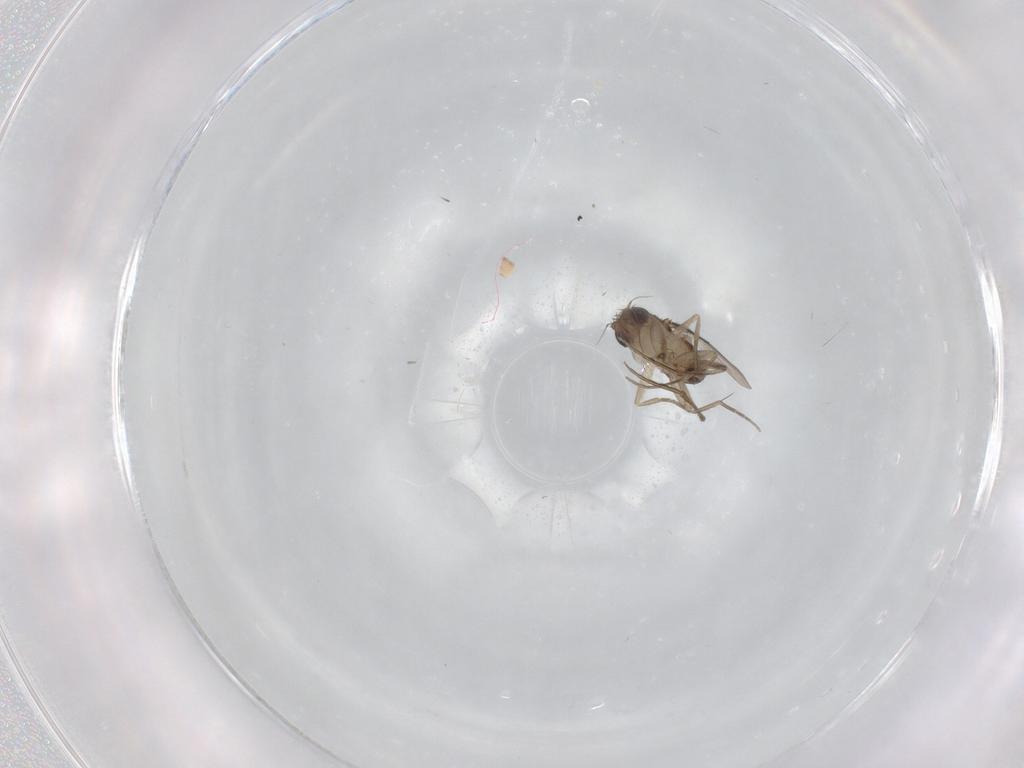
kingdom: Animalia
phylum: Arthropoda
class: Insecta
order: Diptera
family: Phoridae
